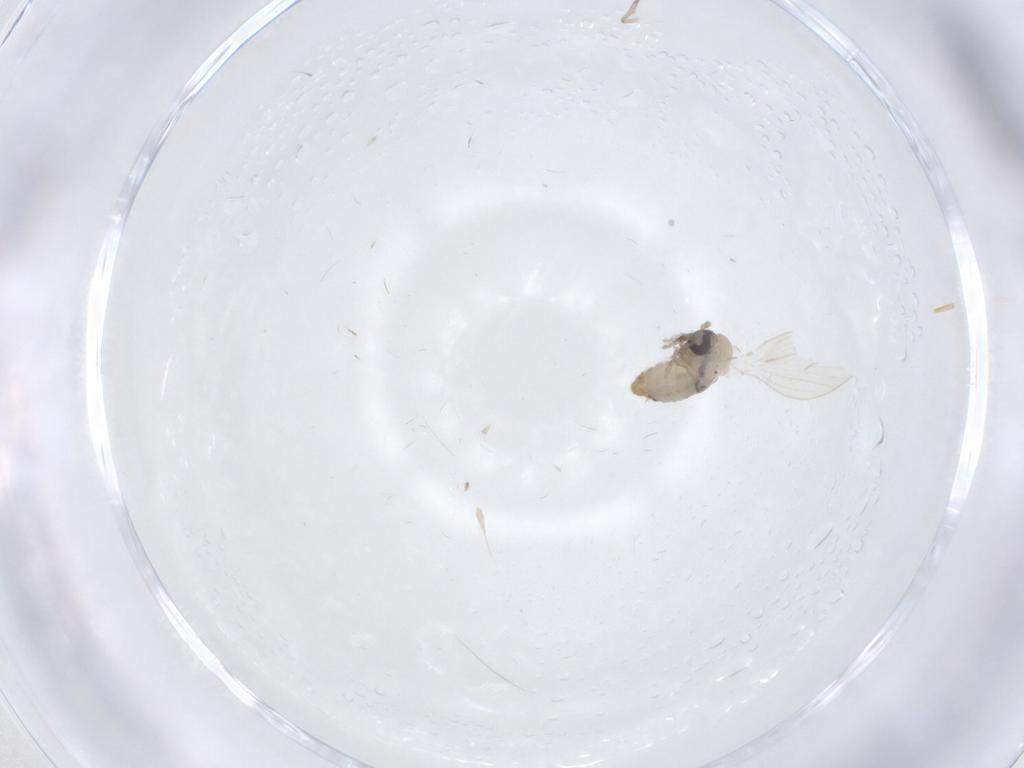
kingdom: Animalia
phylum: Arthropoda
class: Insecta
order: Diptera
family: Psychodidae
